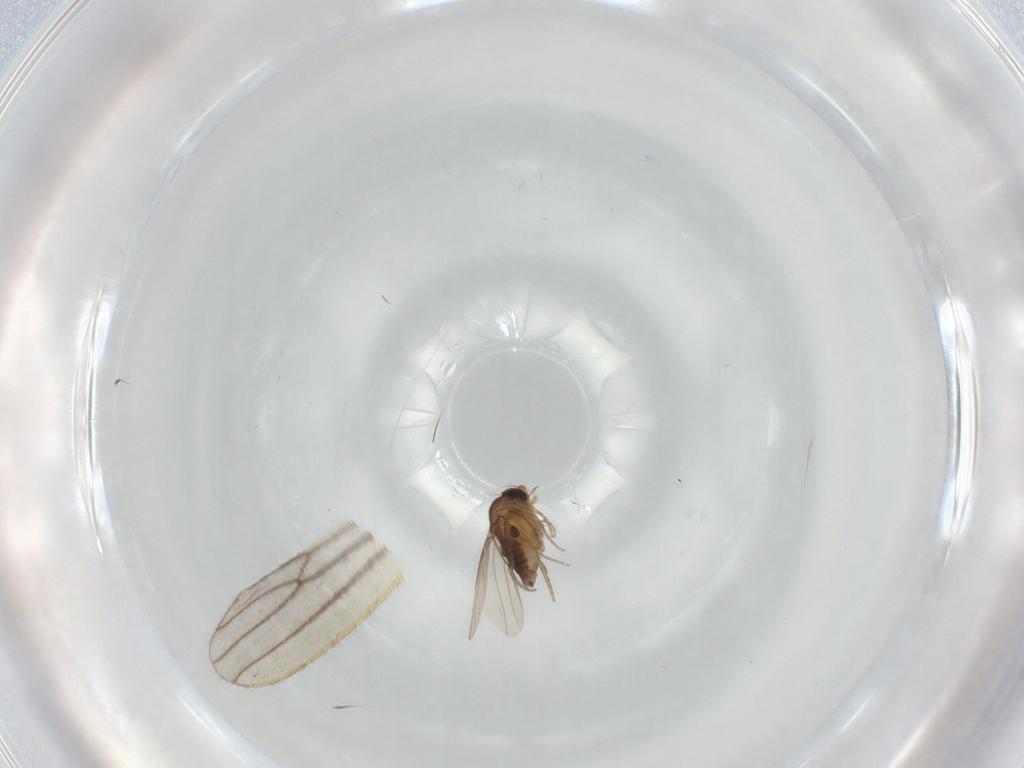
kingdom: Animalia
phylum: Arthropoda
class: Insecta
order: Diptera
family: Phoridae
